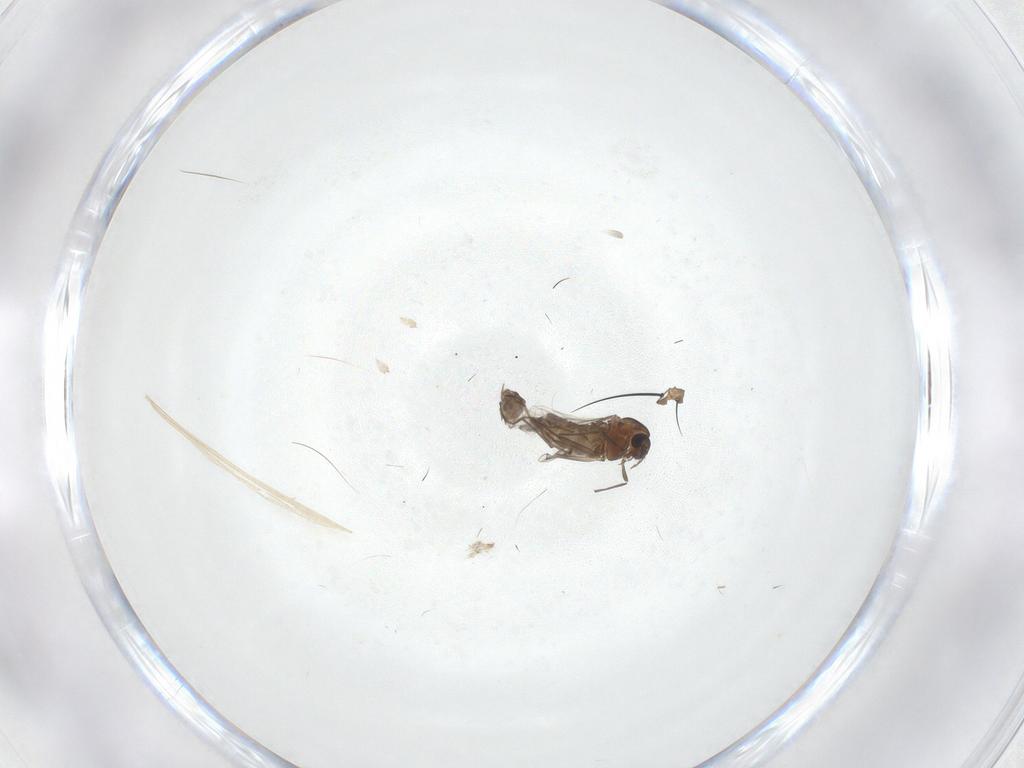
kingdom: Animalia
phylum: Arthropoda
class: Insecta
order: Diptera
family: Chironomidae
